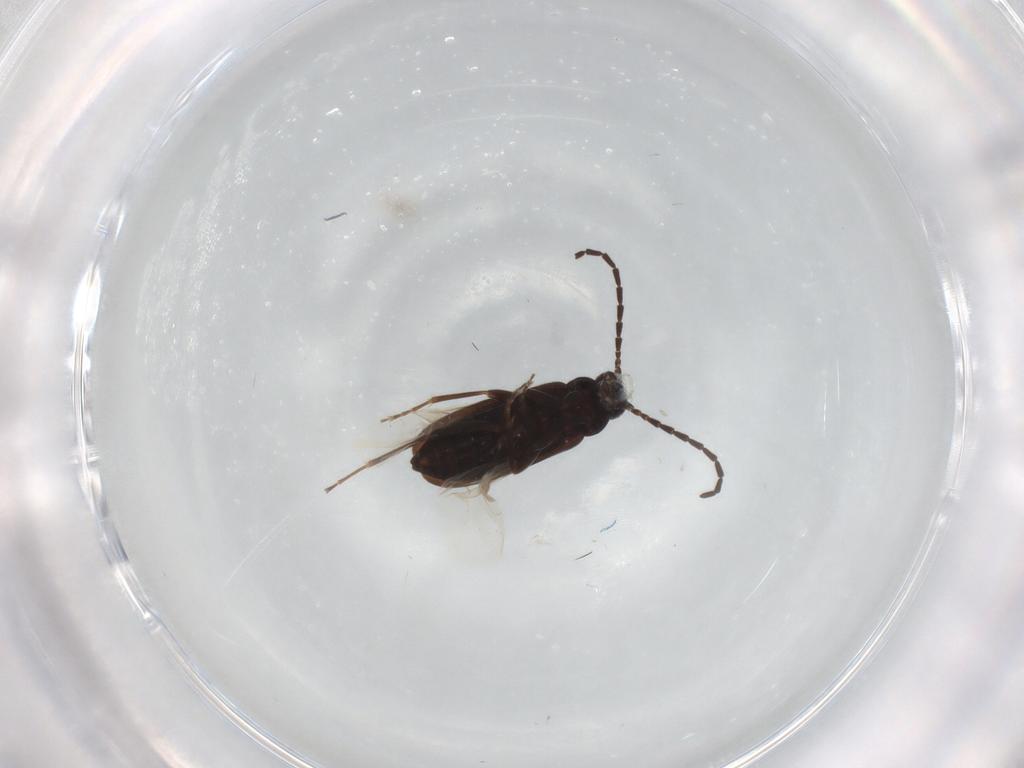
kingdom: Animalia
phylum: Arthropoda
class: Insecta
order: Coleoptera
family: Scraptiidae
